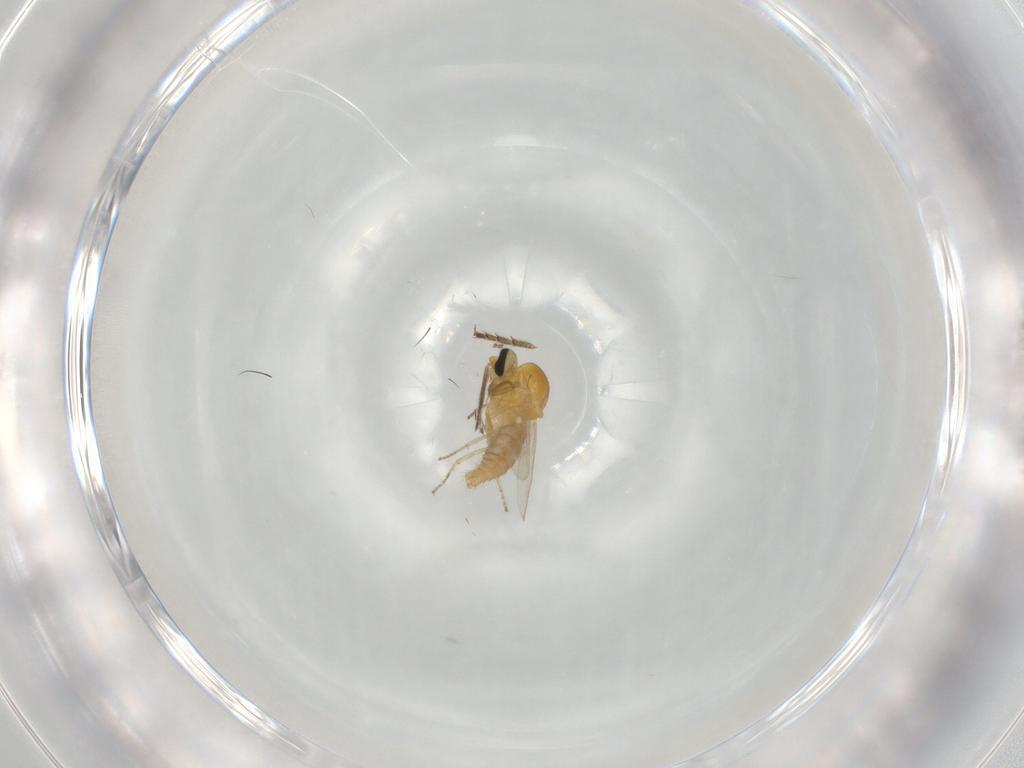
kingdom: Animalia
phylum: Arthropoda
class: Insecta
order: Diptera
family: Ceratopogonidae
